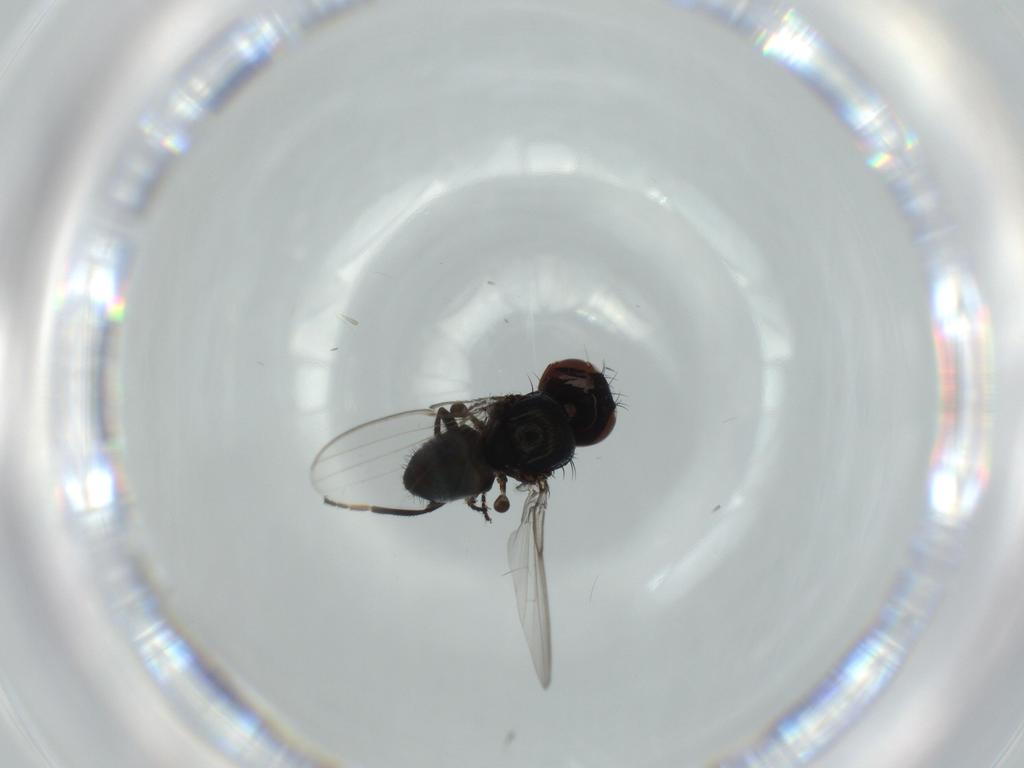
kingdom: Animalia
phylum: Arthropoda
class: Insecta
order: Diptera
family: Milichiidae
